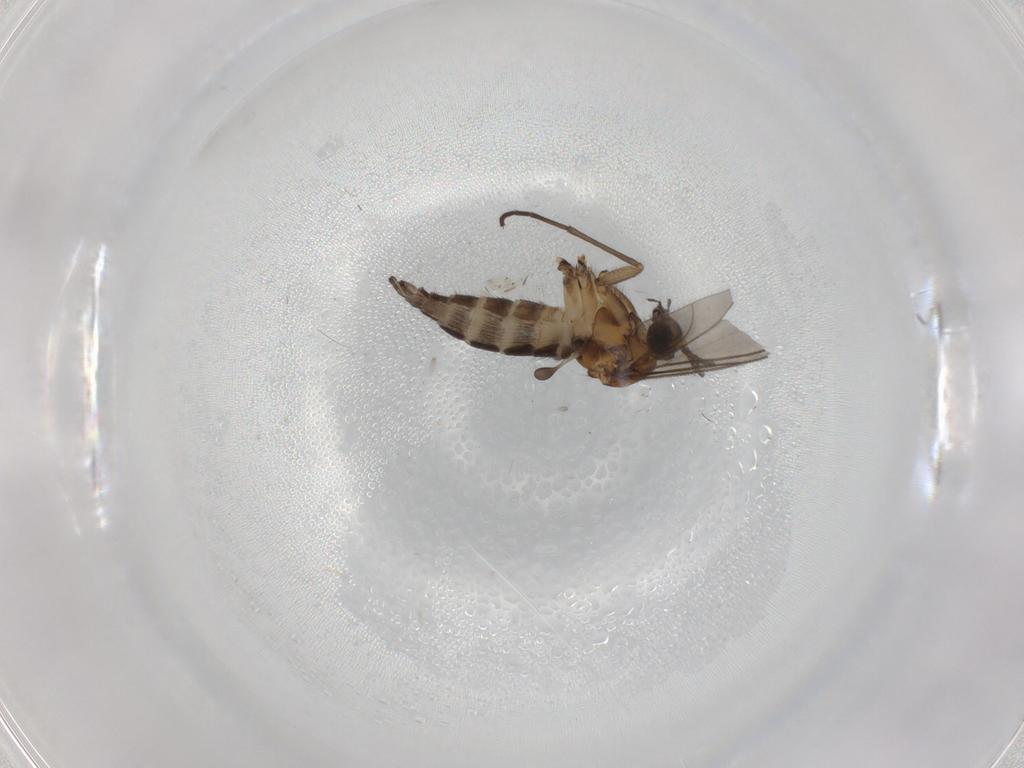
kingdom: Animalia
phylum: Arthropoda
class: Insecta
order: Diptera
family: Sciaridae
